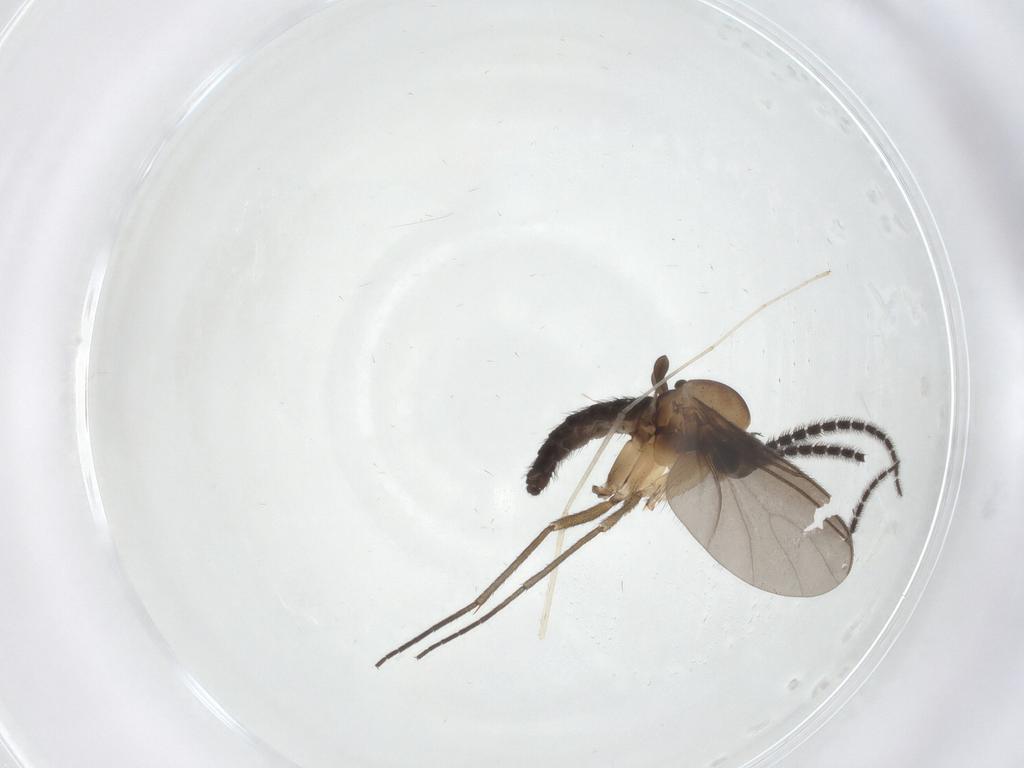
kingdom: Animalia
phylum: Arthropoda
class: Insecta
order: Diptera
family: Sciaridae
